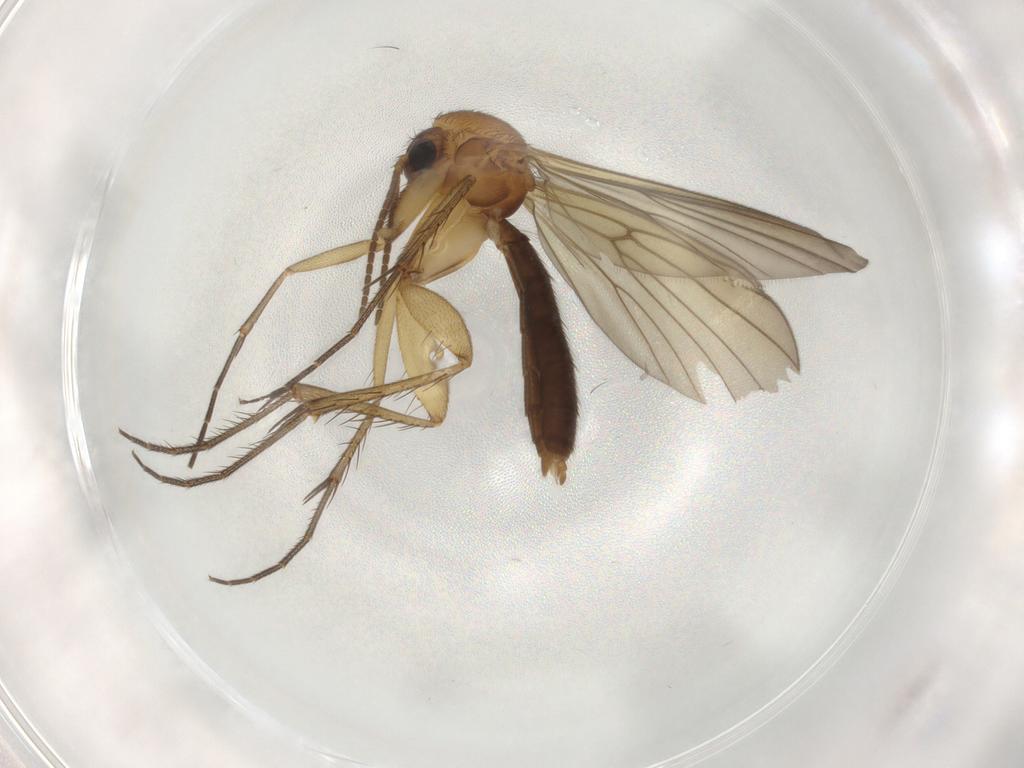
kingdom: Animalia
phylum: Arthropoda
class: Insecta
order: Diptera
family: Mycetophilidae
